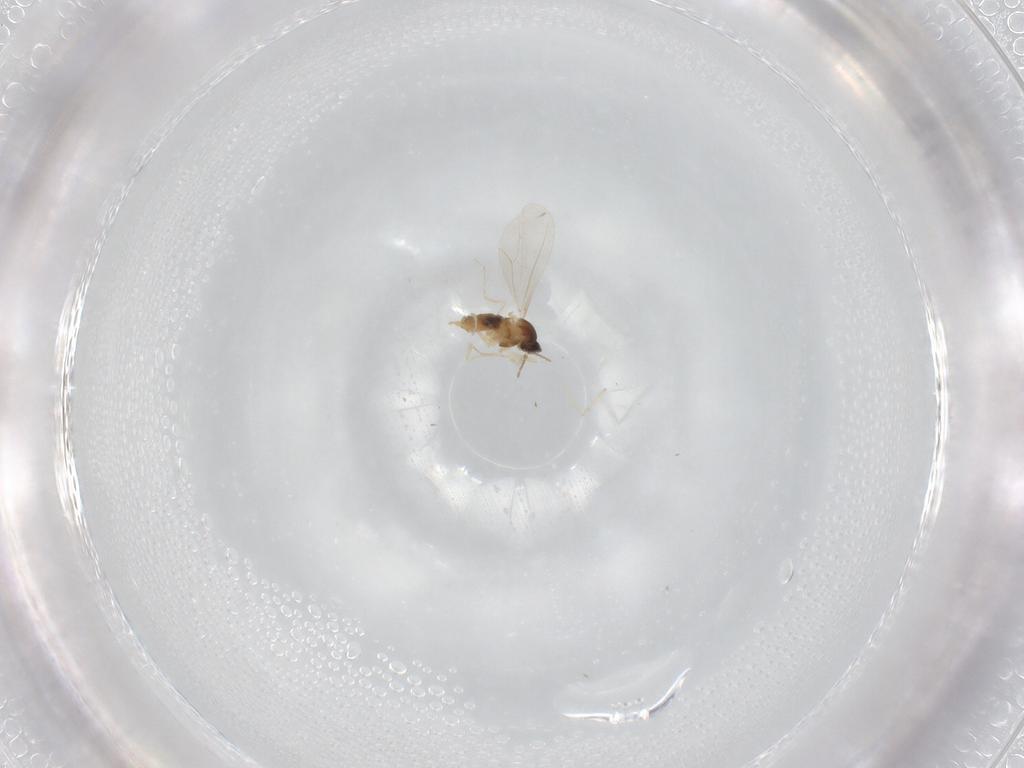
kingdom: Animalia
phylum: Arthropoda
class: Insecta
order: Diptera
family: Cecidomyiidae
